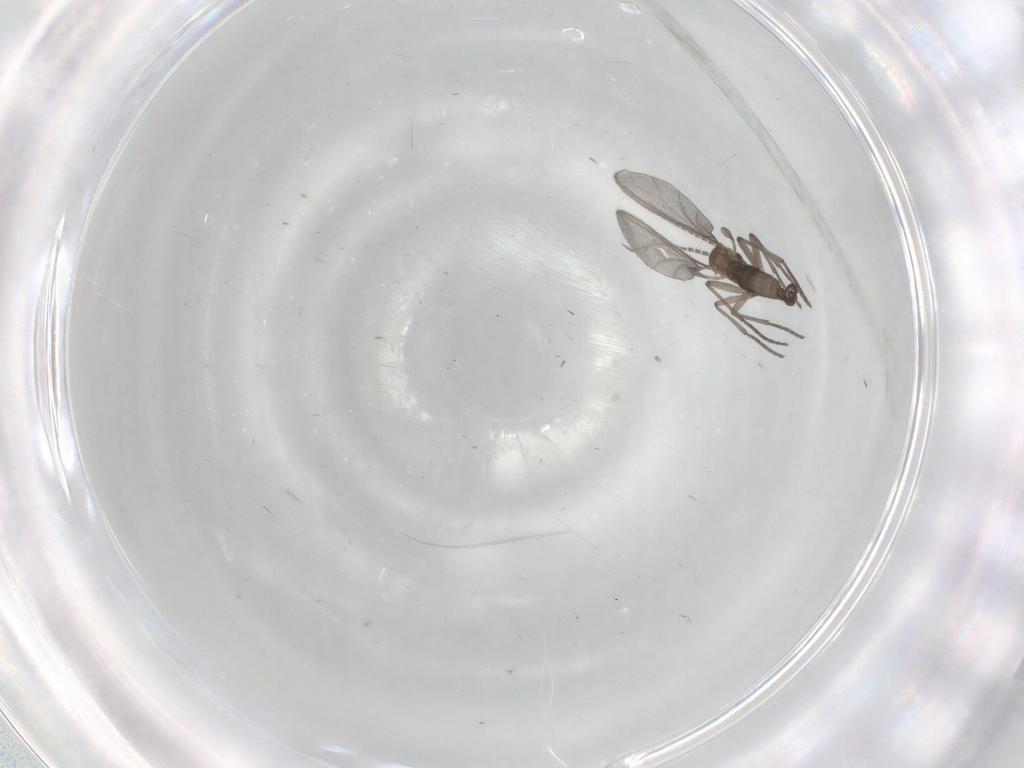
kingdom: Animalia
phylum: Arthropoda
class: Insecta
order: Diptera
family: Sciaridae
